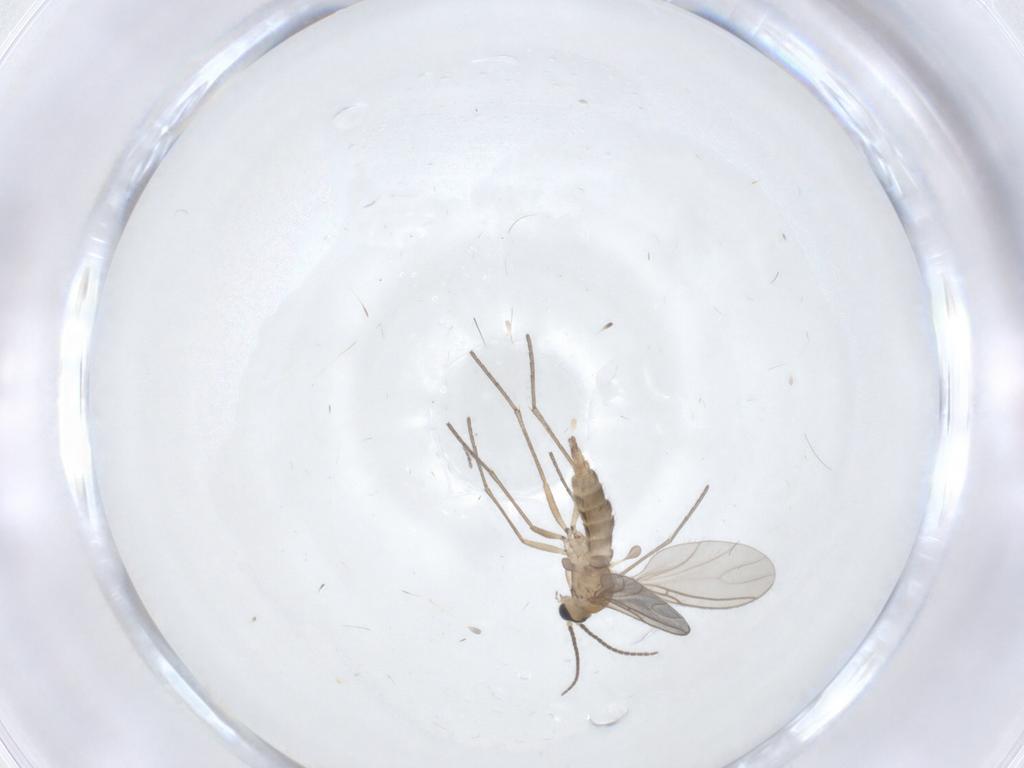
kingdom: Animalia
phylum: Arthropoda
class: Insecta
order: Diptera
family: Sciaridae
